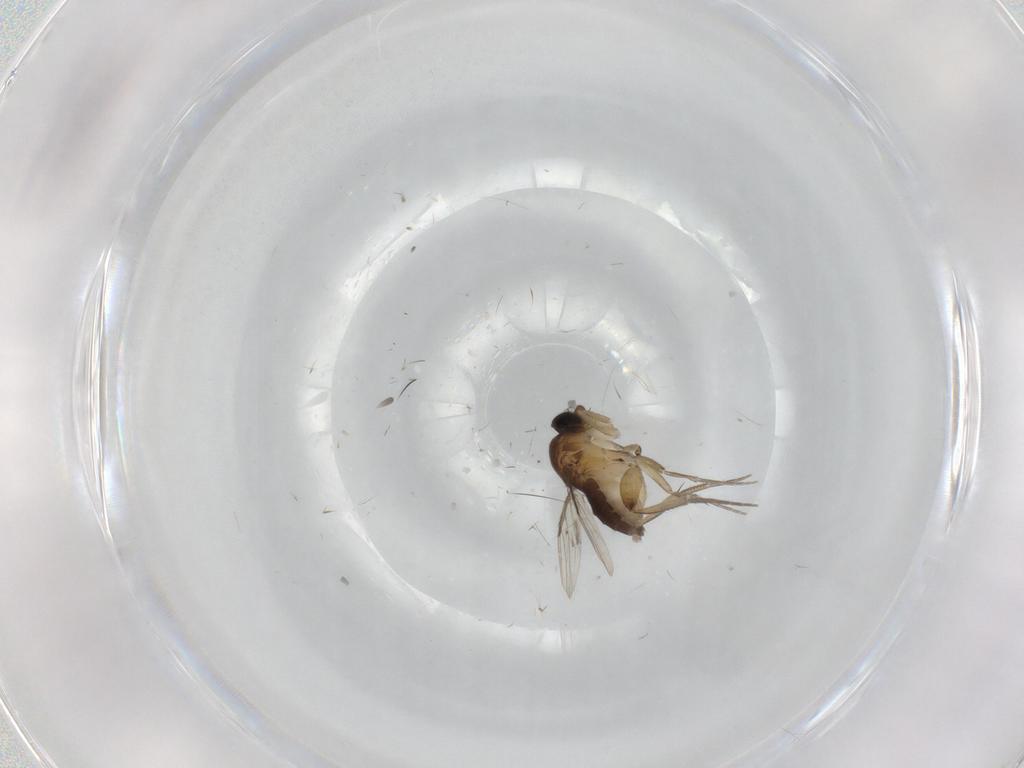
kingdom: Animalia
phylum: Arthropoda
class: Insecta
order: Diptera
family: Phoridae
